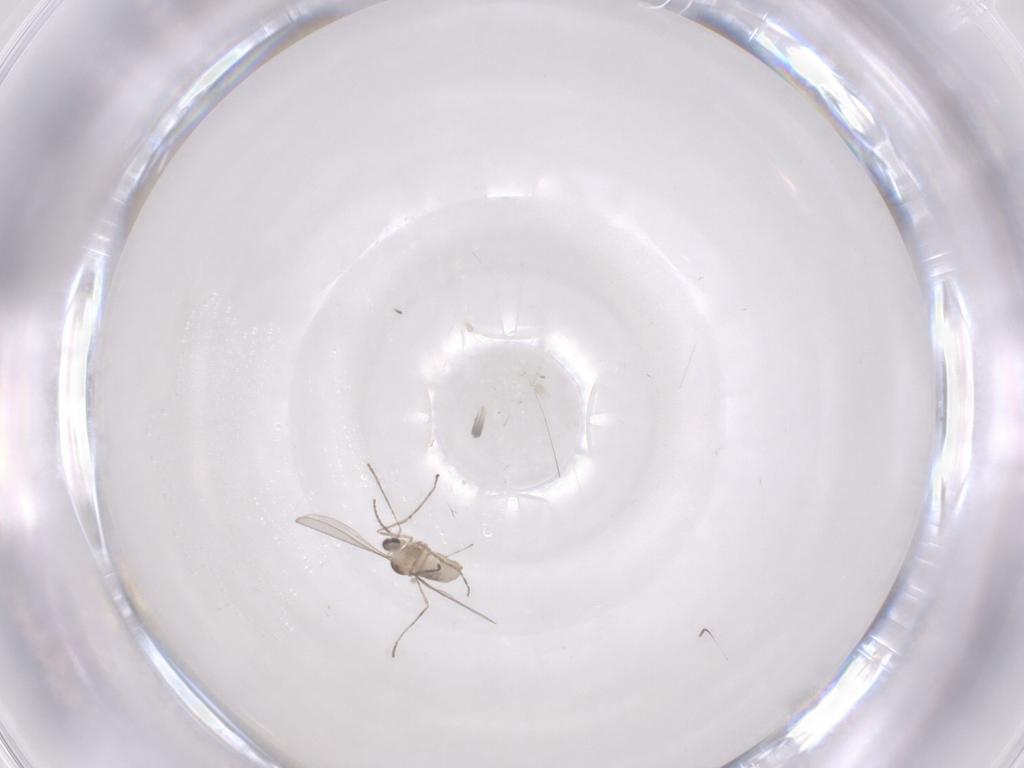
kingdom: Animalia
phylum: Arthropoda
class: Insecta
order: Diptera
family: Cecidomyiidae
